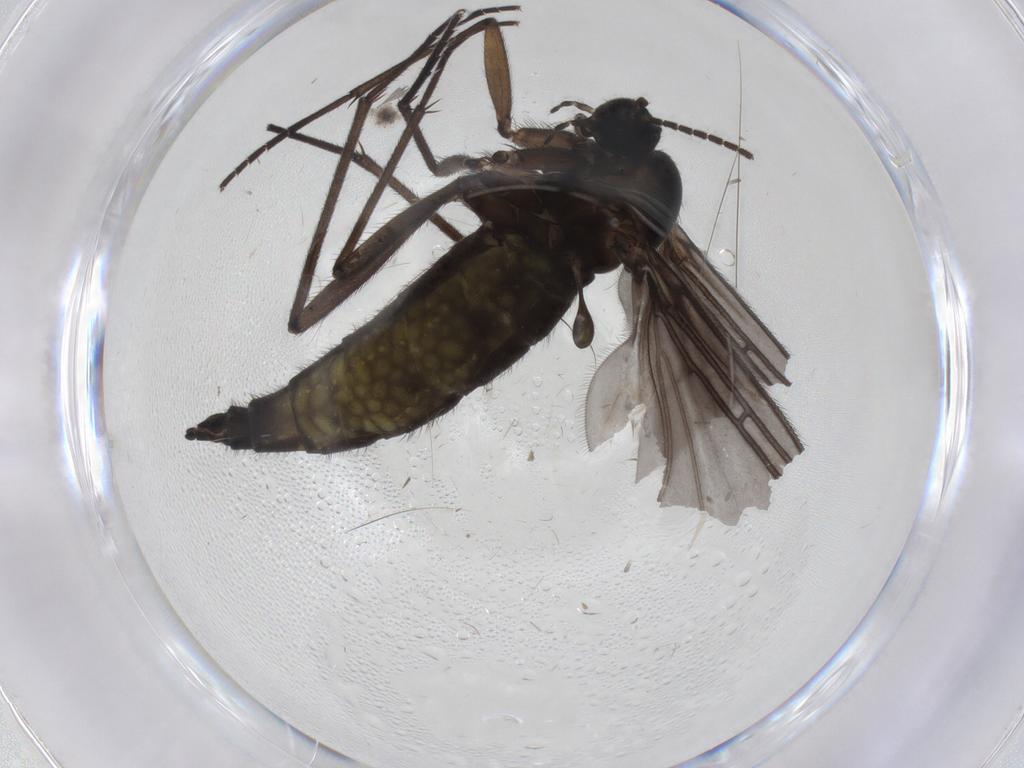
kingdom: Animalia
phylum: Arthropoda
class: Insecta
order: Diptera
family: Sciaridae
